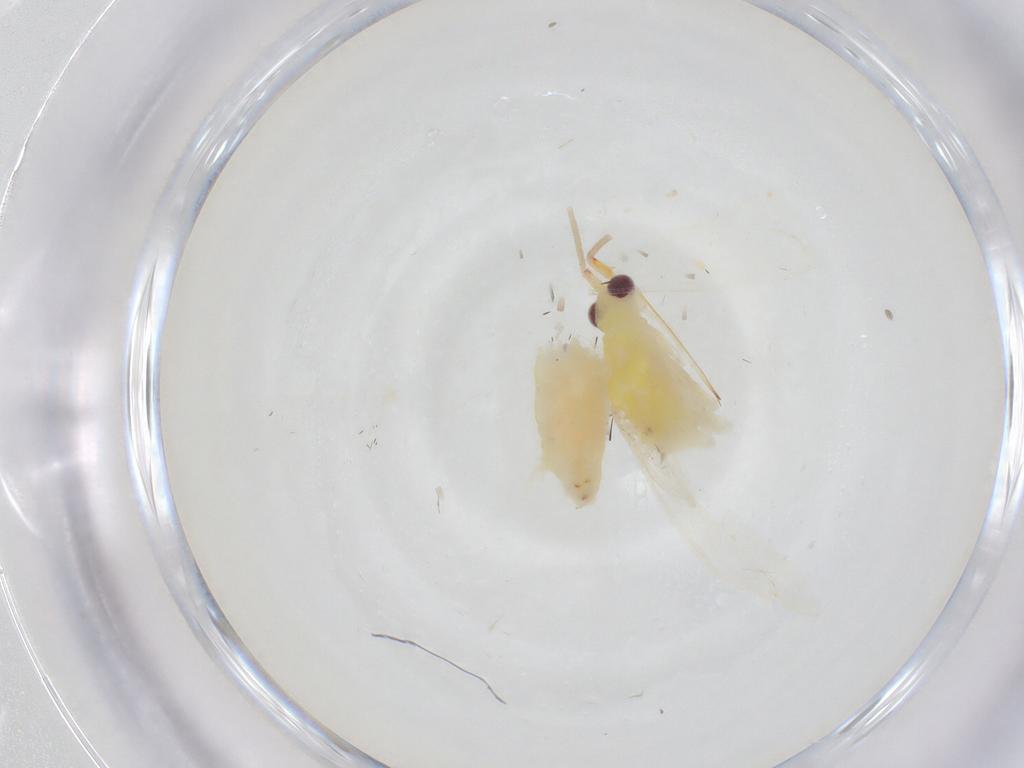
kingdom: Animalia
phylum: Arthropoda
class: Insecta
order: Hemiptera
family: Miridae
